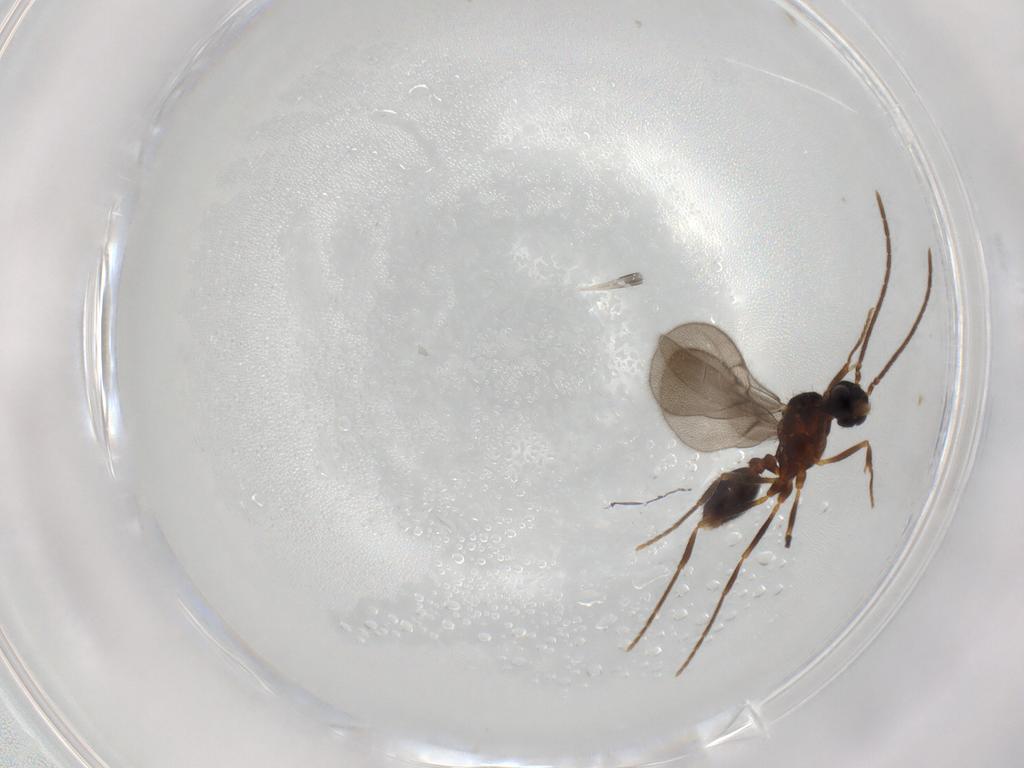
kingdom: Animalia
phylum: Arthropoda
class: Insecta
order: Hymenoptera
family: Formicidae
